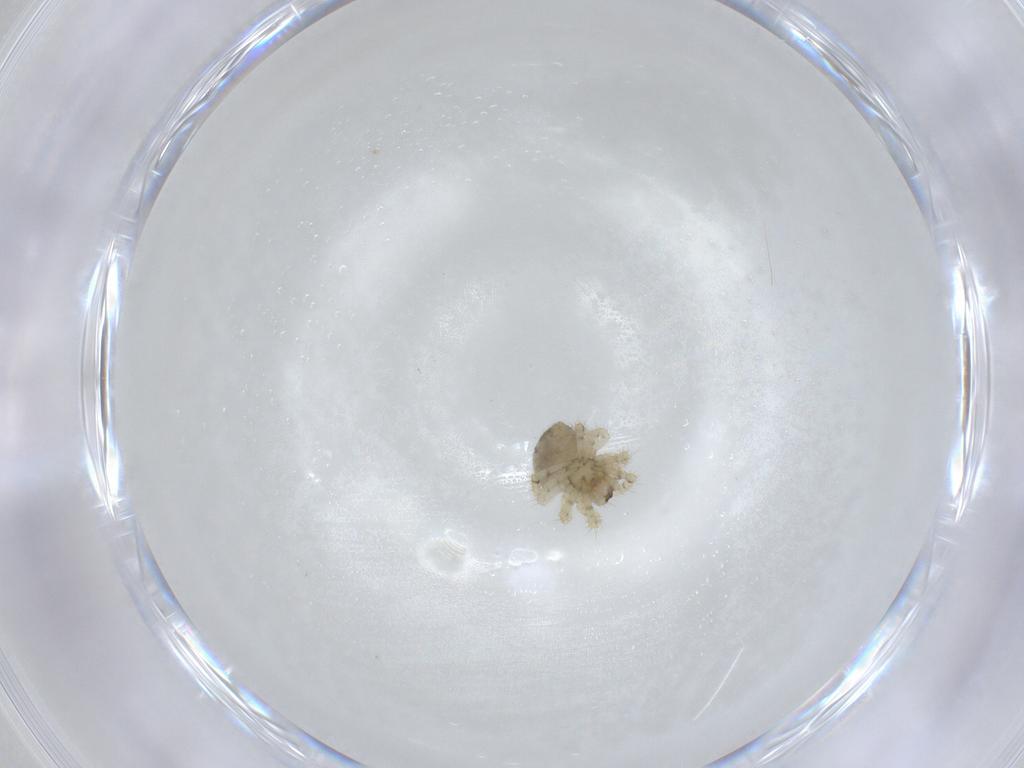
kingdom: Animalia
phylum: Arthropoda
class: Arachnida
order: Araneae
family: Theridiidae
